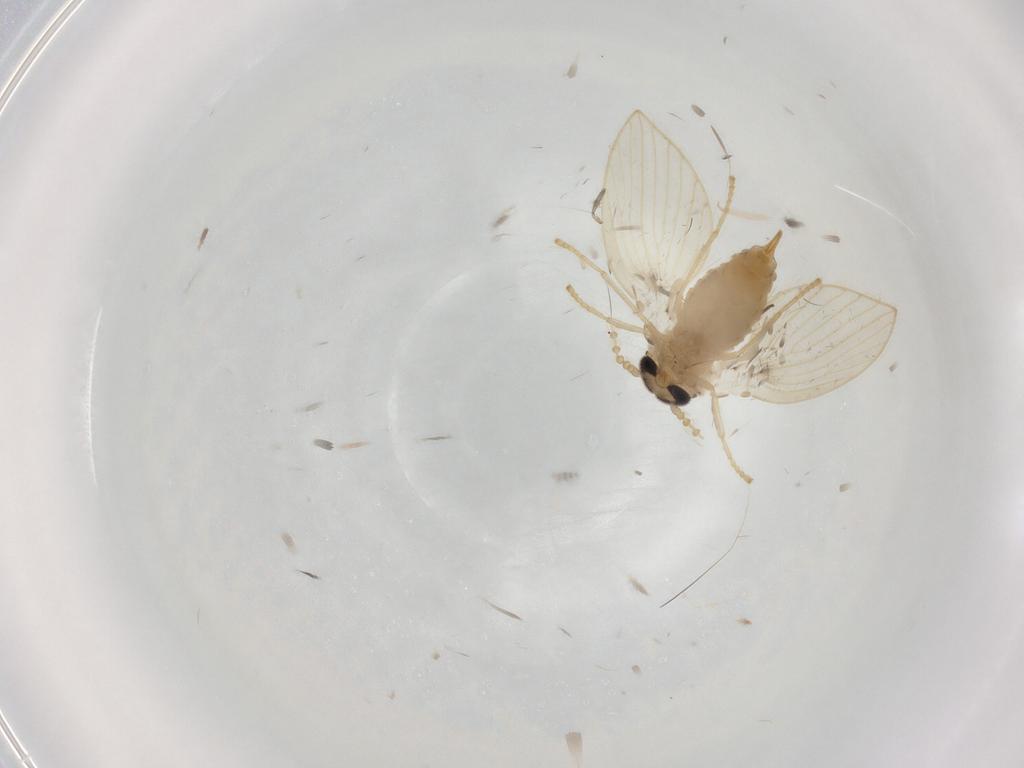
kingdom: Animalia
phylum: Arthropoda
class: Insecta
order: Diptera
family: Psychodidae
